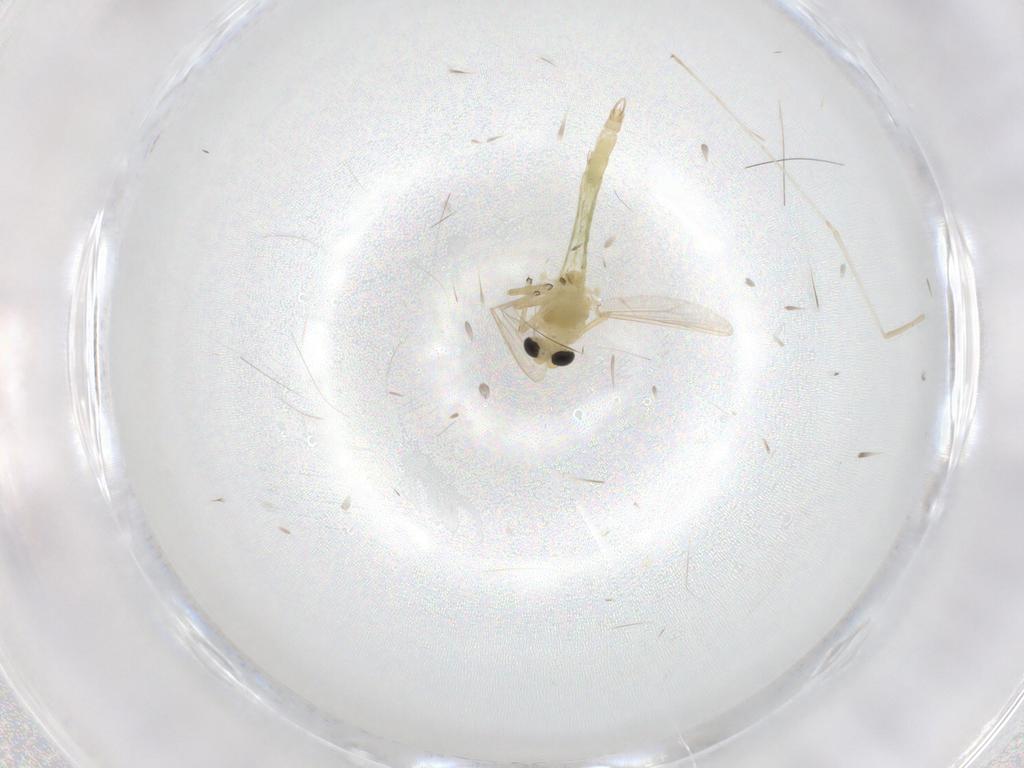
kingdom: Animalia
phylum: Arthropoda
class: Insecta
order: Diptera
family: Chironomidae
